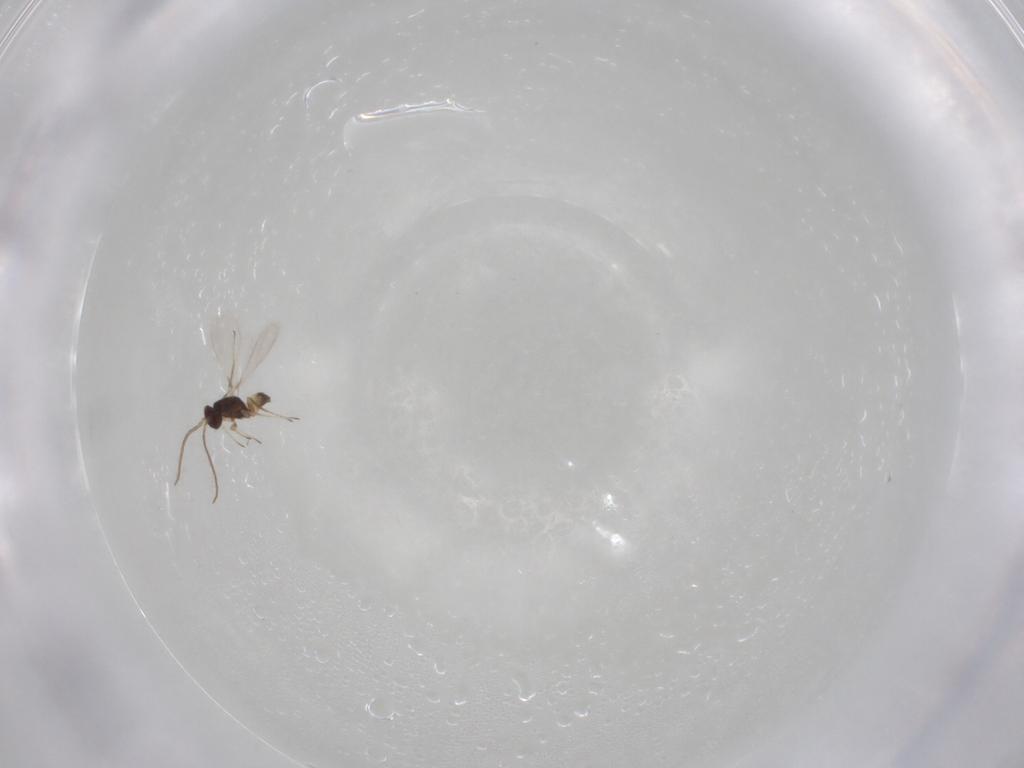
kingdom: Animalia
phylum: Arthropoda
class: Insecta
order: Hymenoptera
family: Mymaridae
